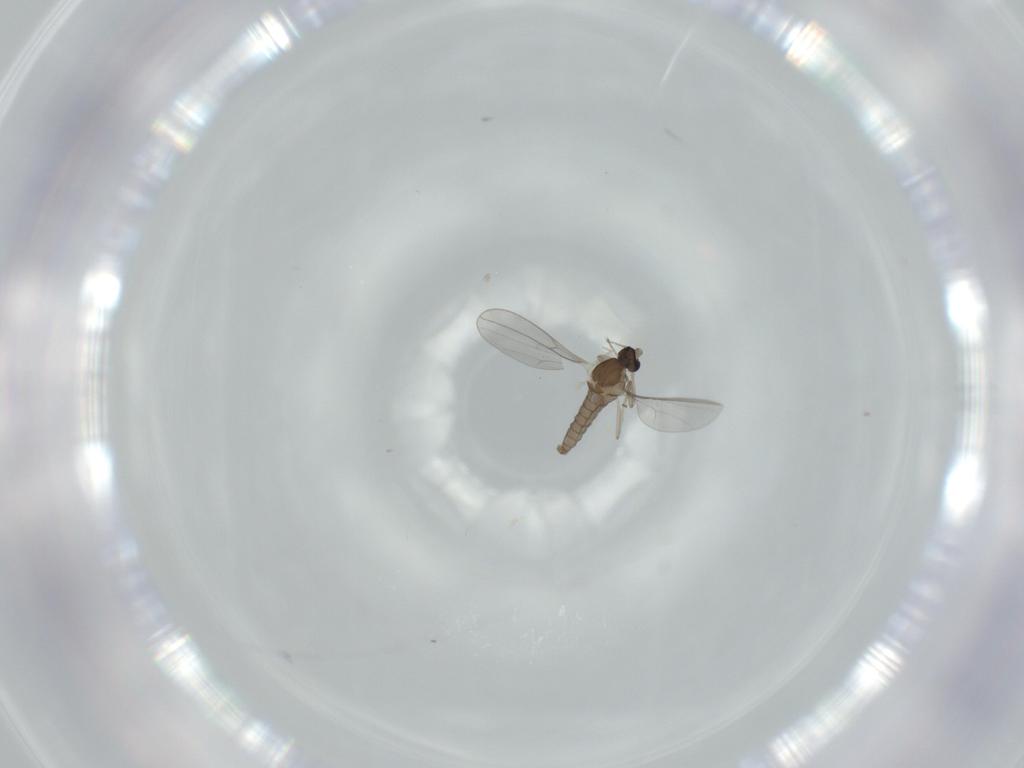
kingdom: Animalia
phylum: Arthropoda
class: Insecta
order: Diptera
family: Cecidomyiidae
